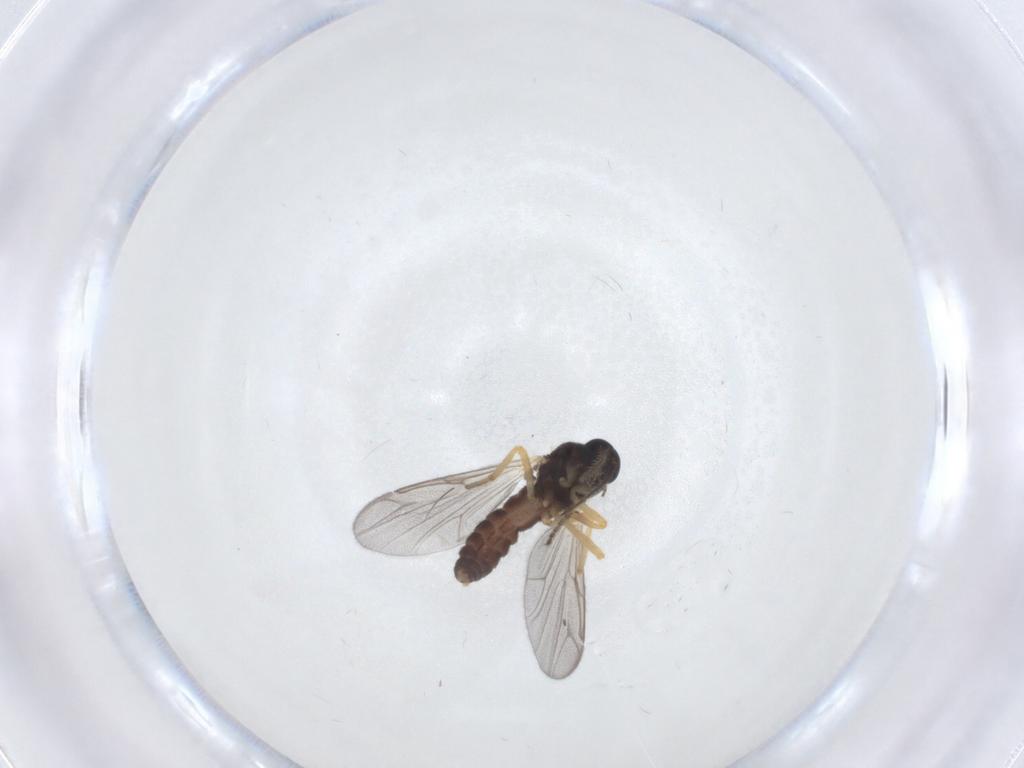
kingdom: Animalia
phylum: Arthropoda
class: Insecta
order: Diptera
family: Ceratopogonidae
